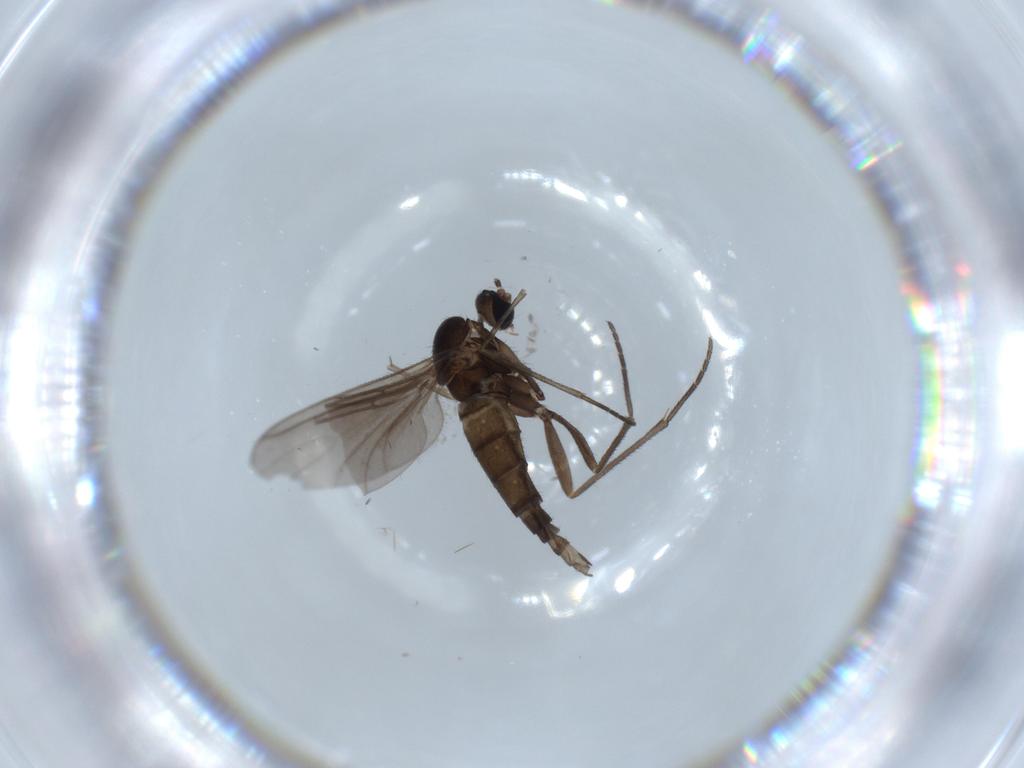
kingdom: Animalia
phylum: Arthropoda
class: Insecta
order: Diptera
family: Sciaridae
